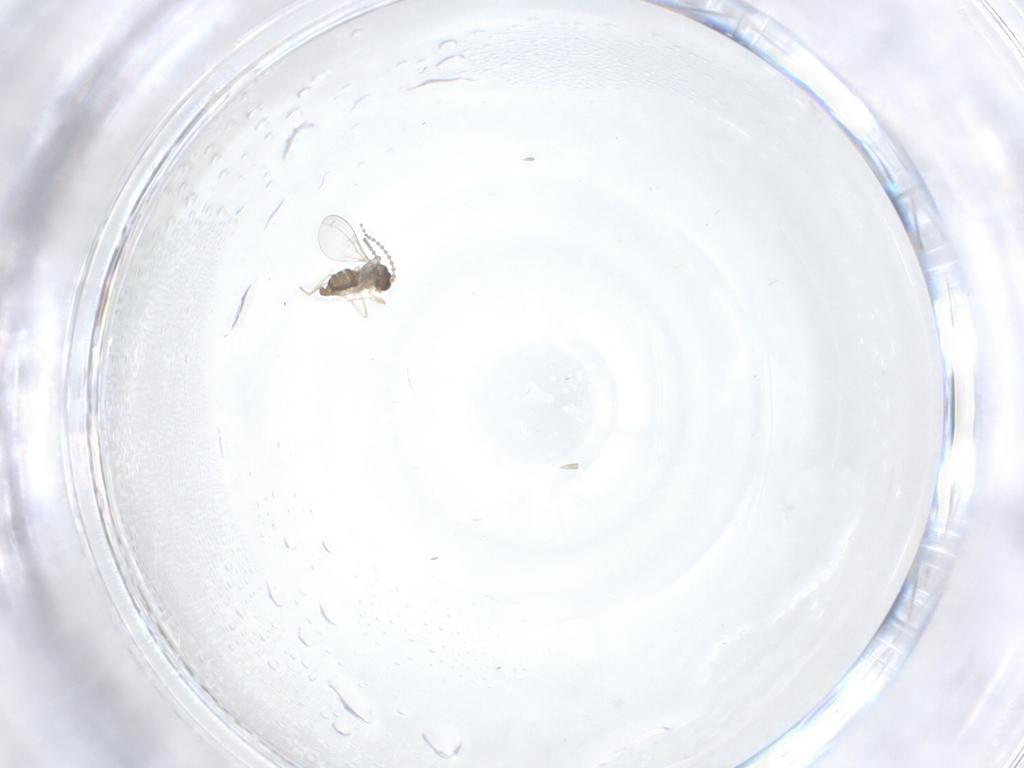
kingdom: Animalia
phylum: Arthropoda
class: Insecta
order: Diptera
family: Cecidomyiidae
